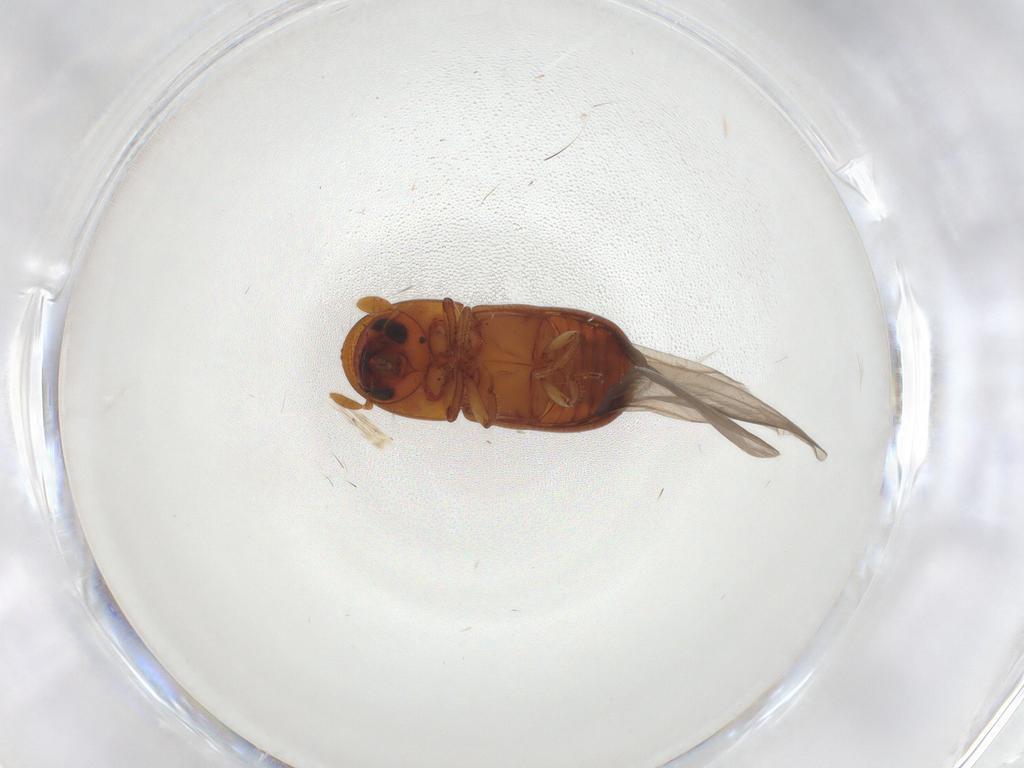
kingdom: Animalia
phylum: Arthropoda
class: Insecta
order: Coleoptera
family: Curculionidae
